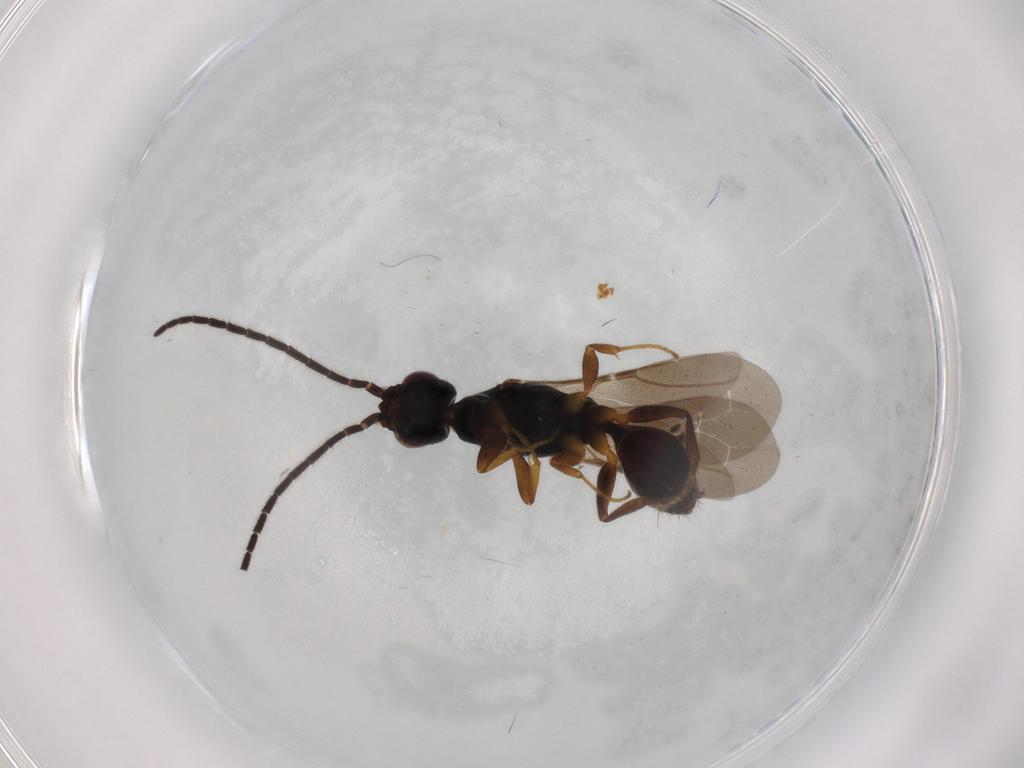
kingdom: Animalia
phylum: Arthropoda
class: Insecta
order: Hymenoptera
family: Bethylidae
